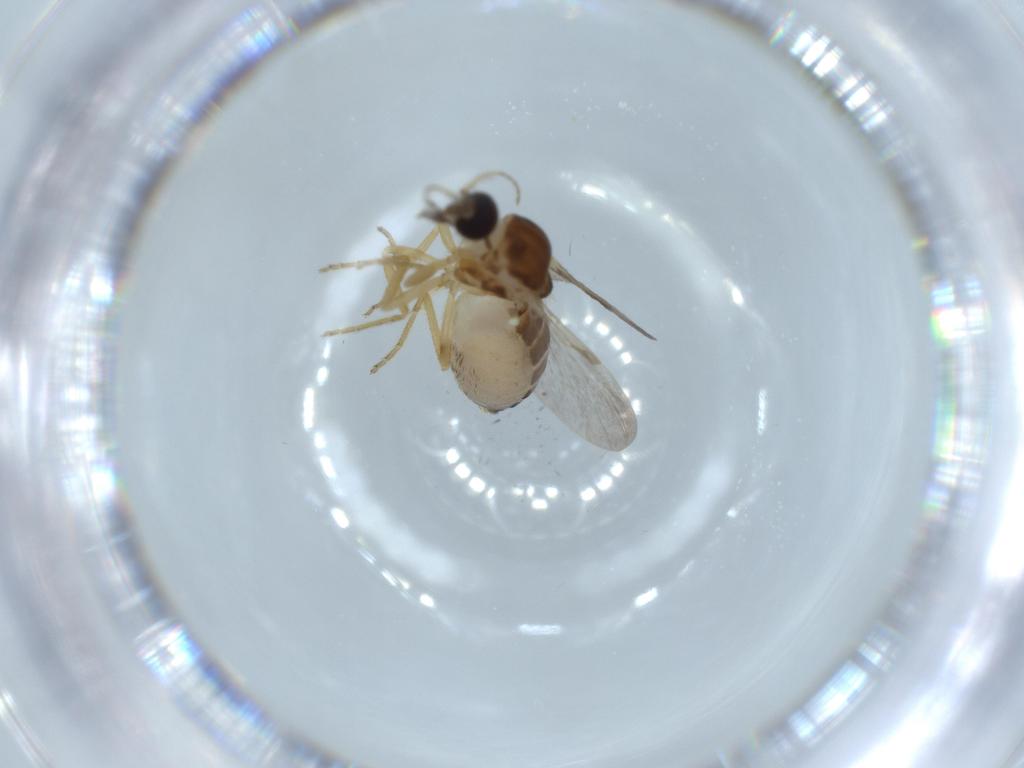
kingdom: Animalia
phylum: Arthropoda
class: Insecta
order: Diptera
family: Ceratopogonidae
